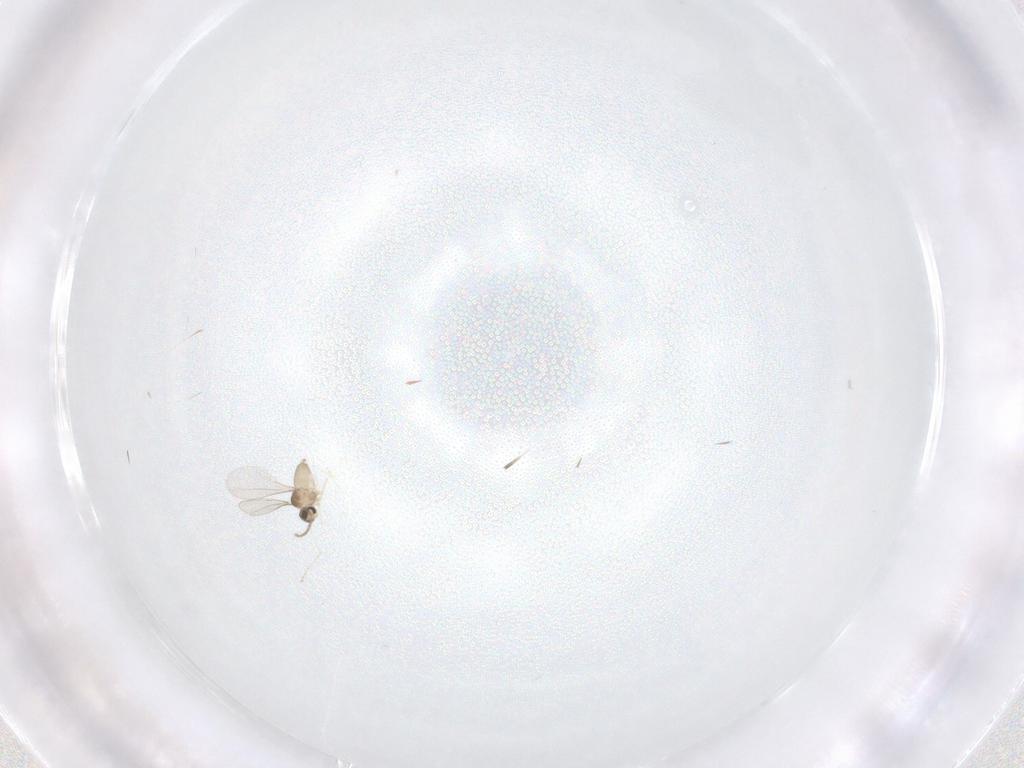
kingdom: Animalia
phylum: Arthropoda
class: Insecta
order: Diptera
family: Cecidomyiidae
